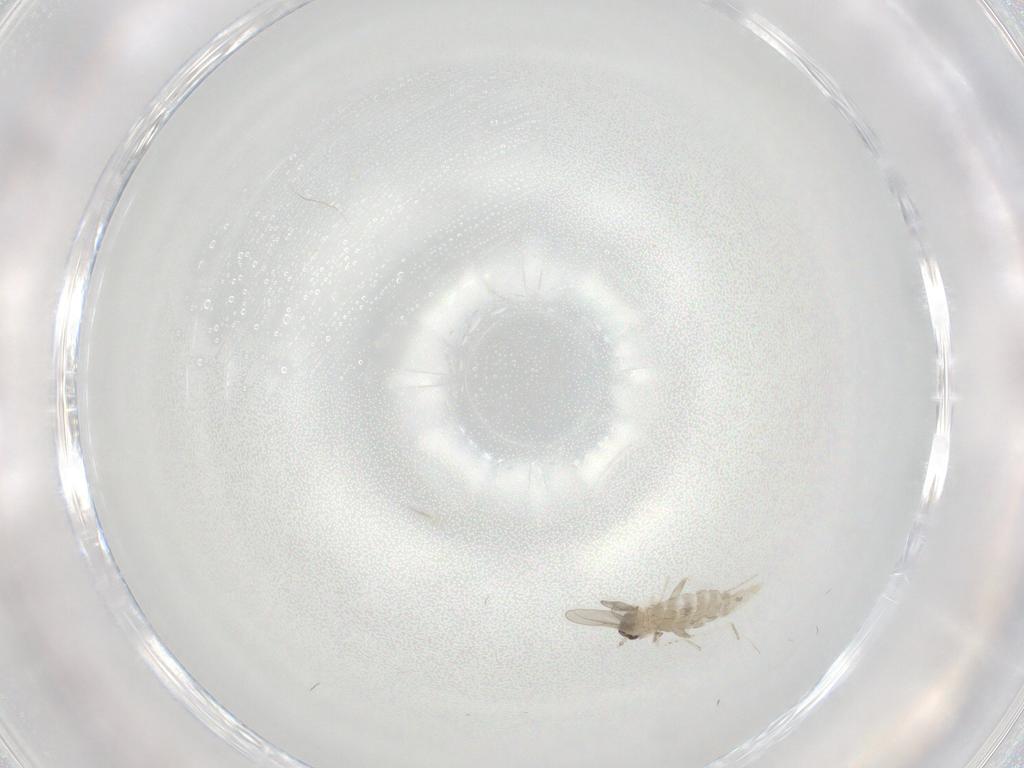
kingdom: Animalia
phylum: Arthropoda
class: Insecta
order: Diptera
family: Cecidomyiidae
